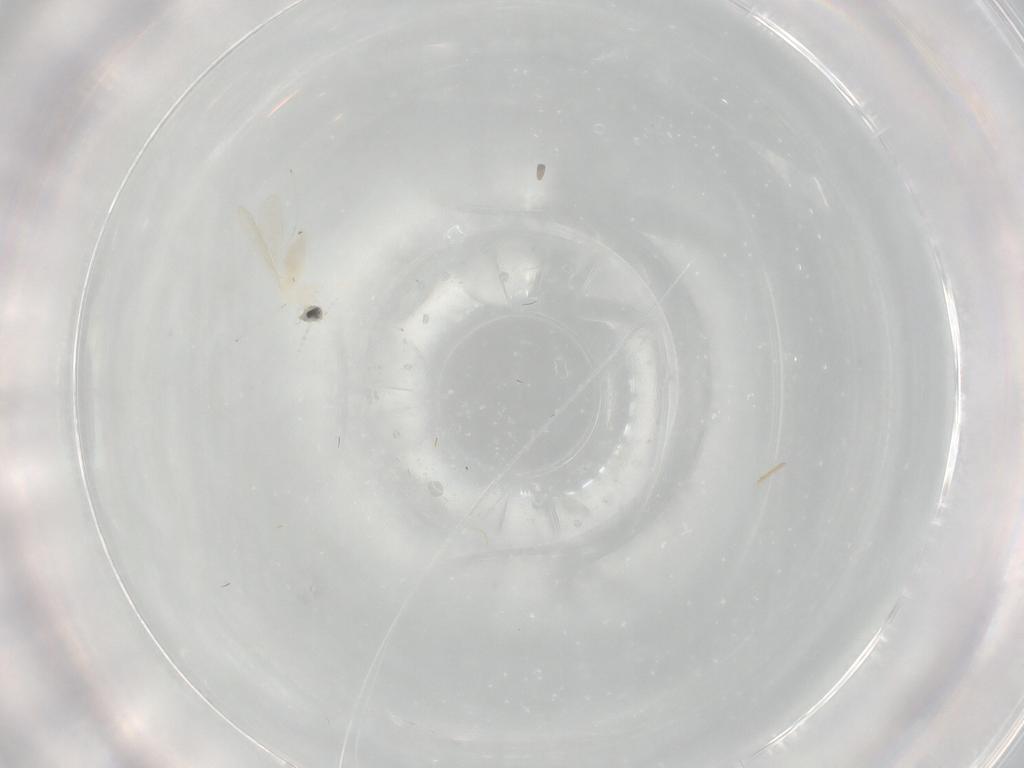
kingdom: Animalia
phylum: Arthropoda
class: Insecta
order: Diptera
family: Cecidomyiidae
